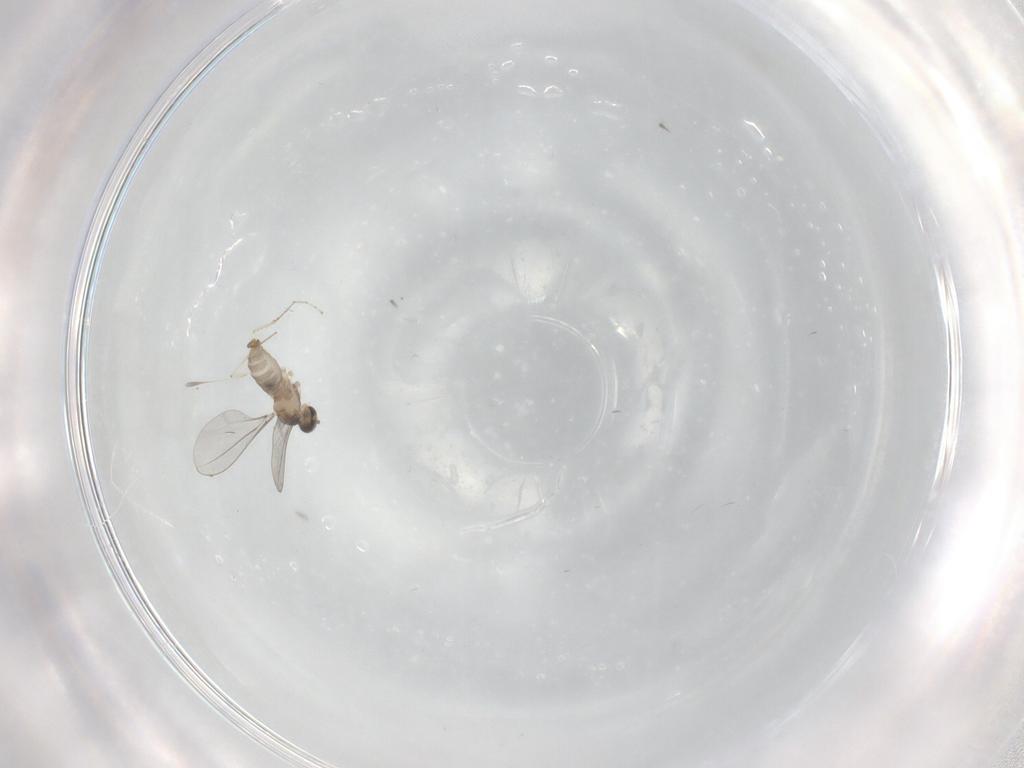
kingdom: Animalia
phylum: Arthropoda
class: Insecta
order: Diptera
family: Cecidomyiidae
